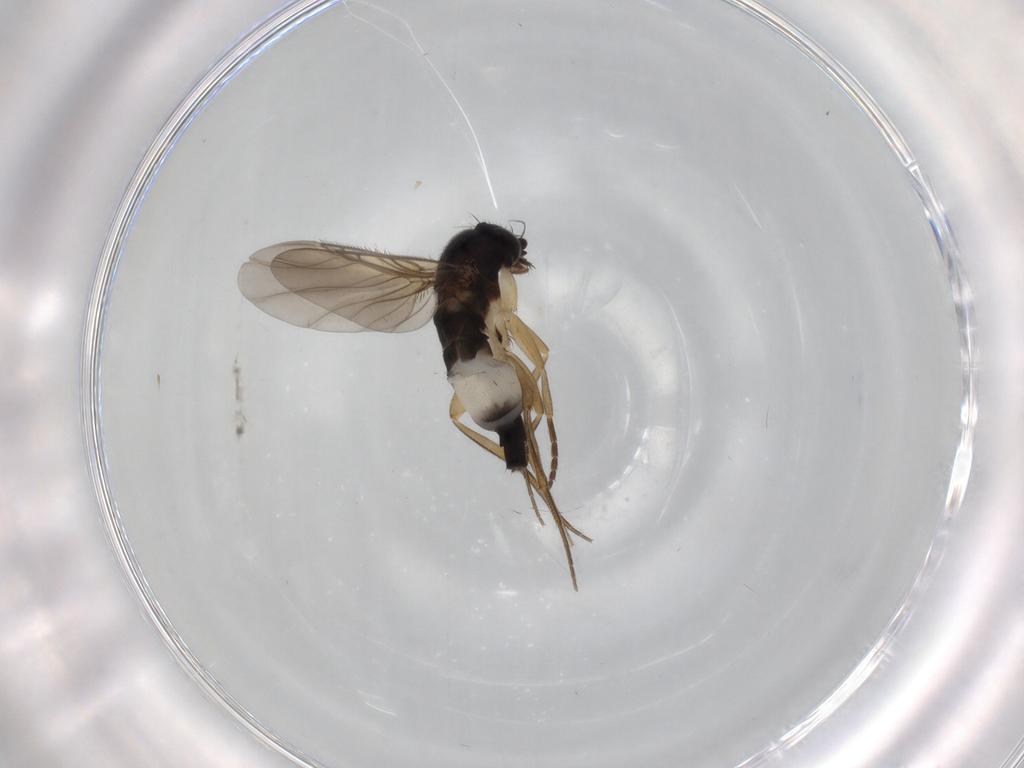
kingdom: Animalia
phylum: Arthropoda
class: Insecta
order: Diptera
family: Phoridae
